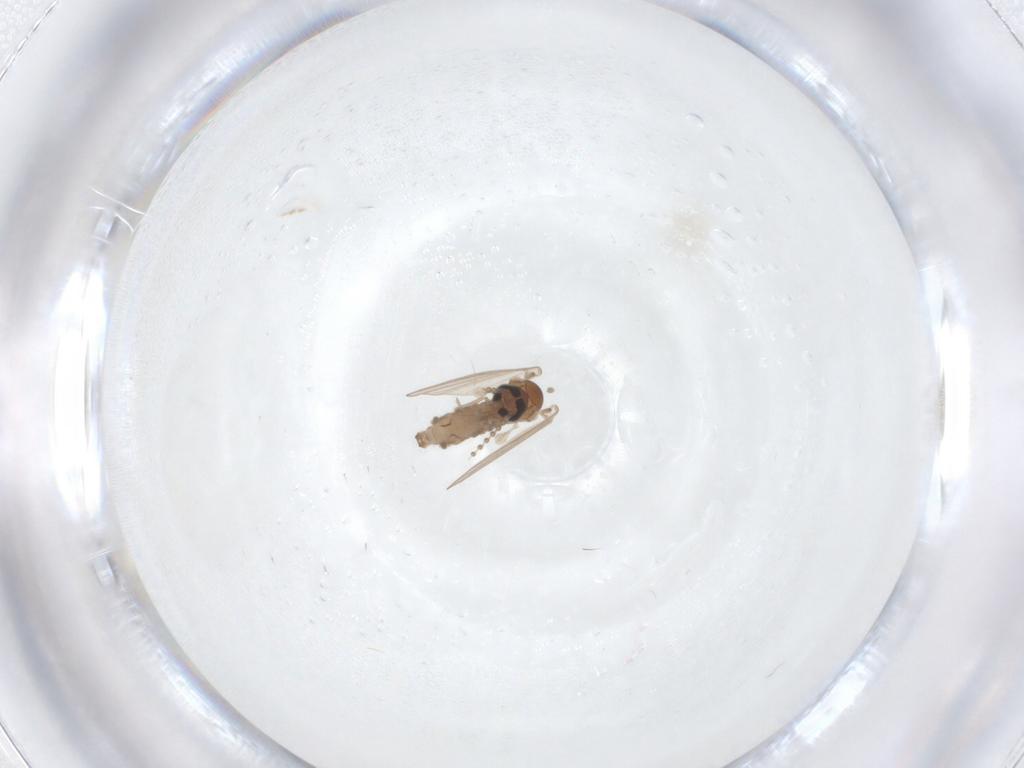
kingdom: Animalia
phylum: Arthropoda
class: Insecta
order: Diptera
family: Psychodidae
